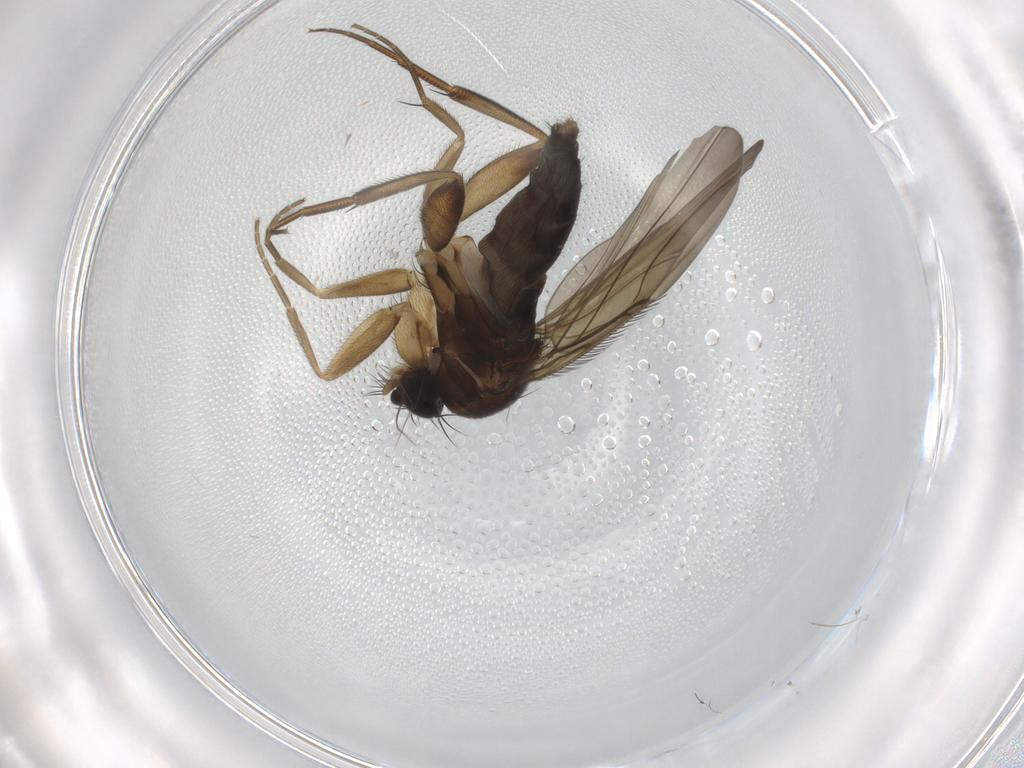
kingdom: Animalia
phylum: Arthropoda
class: Insecta
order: Diptera
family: Phoridae
